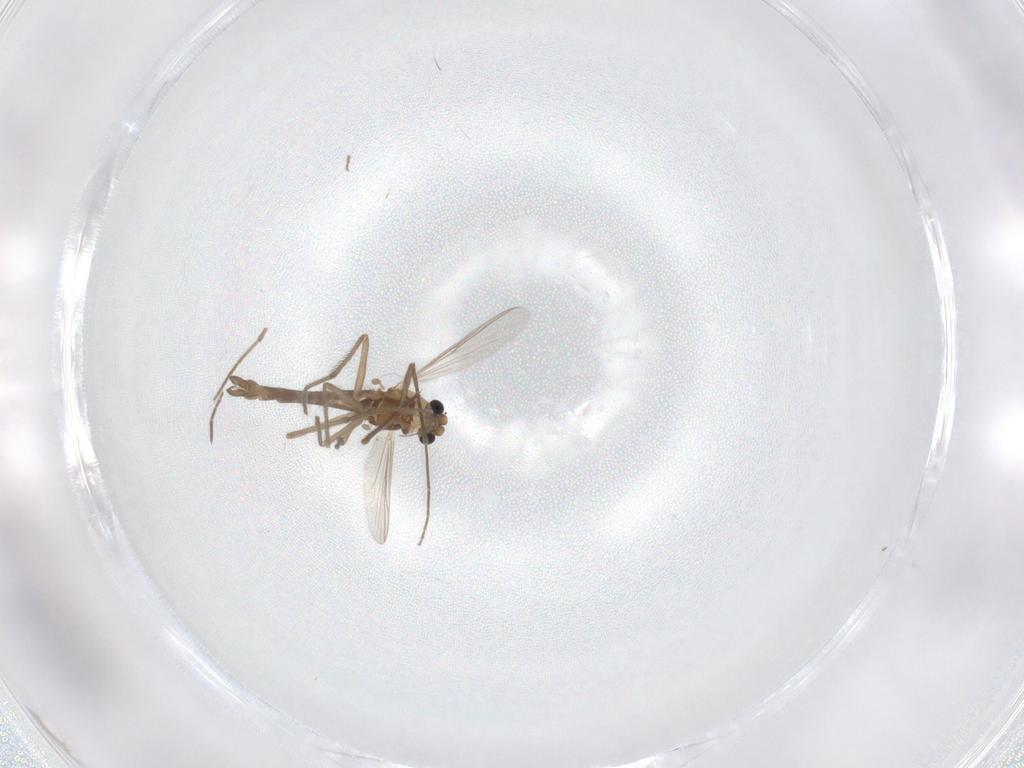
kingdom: Animalia
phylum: Arthropoda
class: Insecta
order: Diptera
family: Chironomidae
